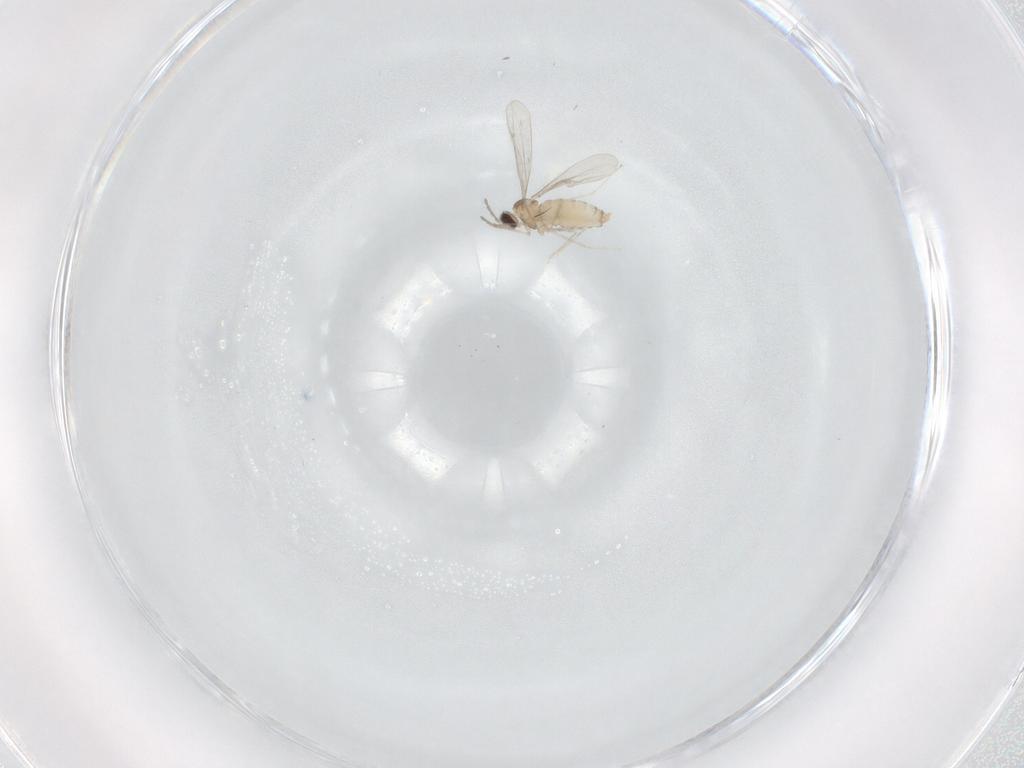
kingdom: Animalia
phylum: Arthropoda
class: Insecta
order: Diptera
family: Cecidomyiidae
